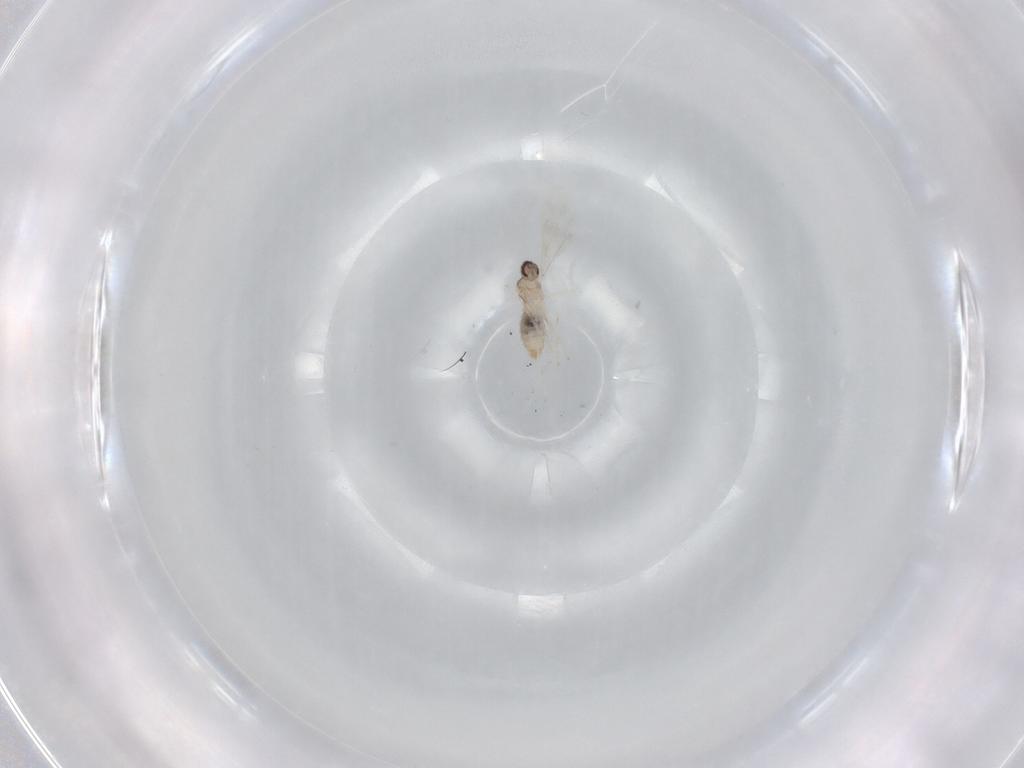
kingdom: Animalia
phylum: Arthropoda
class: Insecta
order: Diptera
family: Cecidomyiidae
